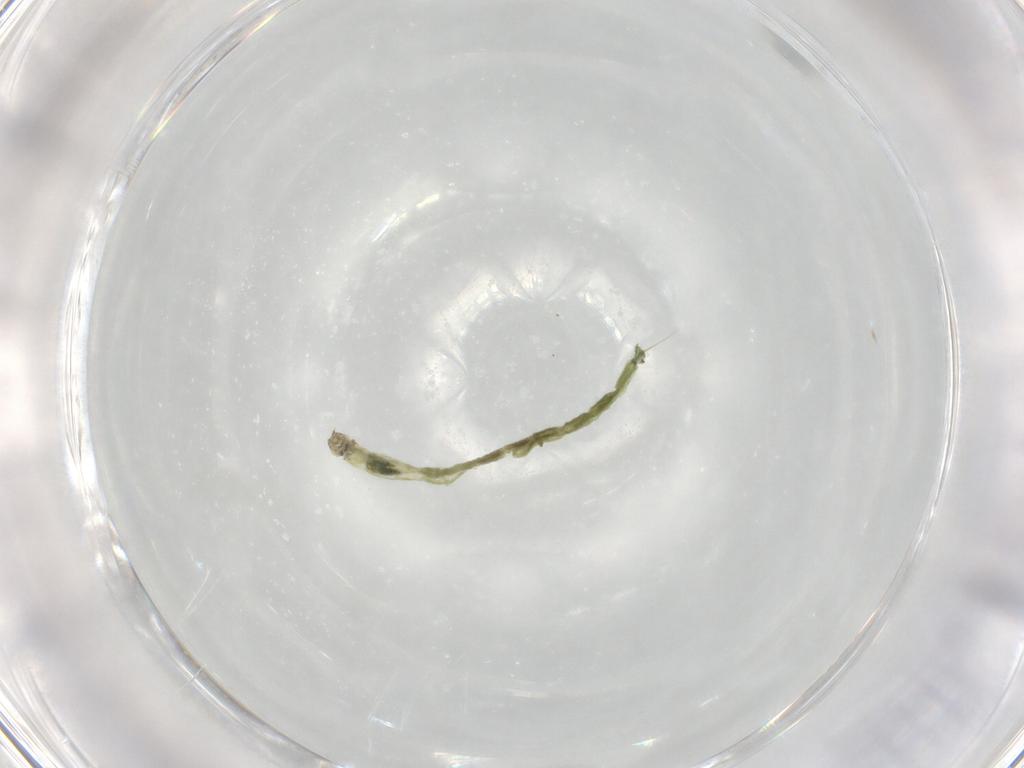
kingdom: Animalia
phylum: Arthropoda
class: Insecta
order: Diptera
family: Chironomidae
